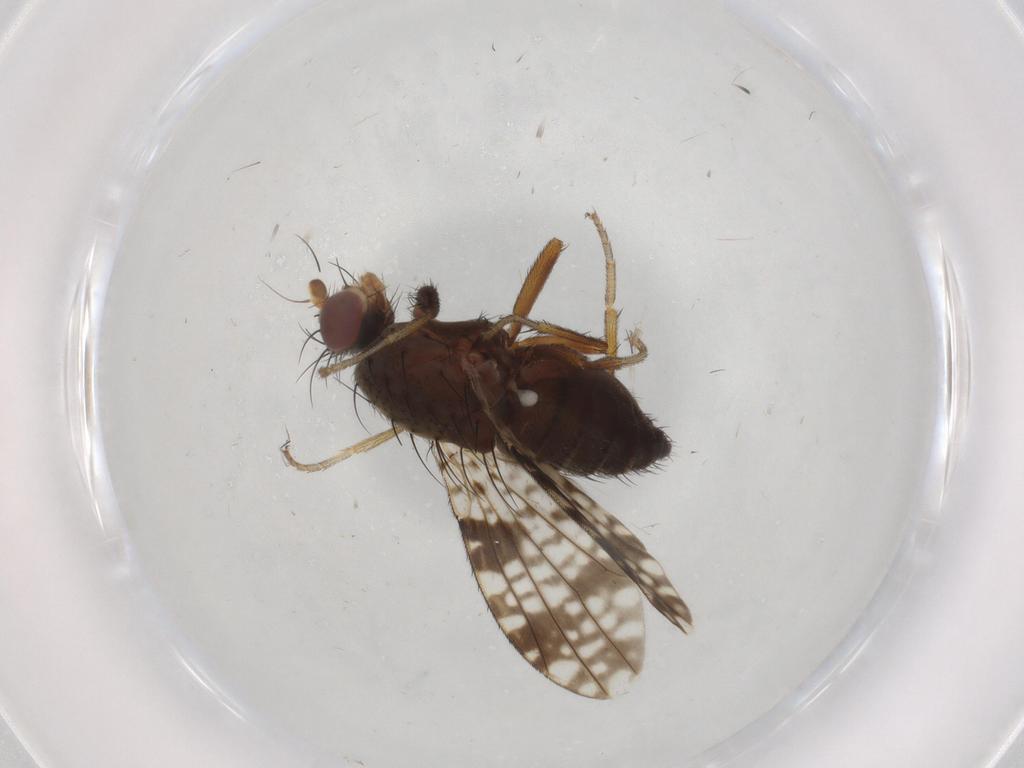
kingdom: Animalia
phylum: Arthropoda
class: Insecta
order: Diptera
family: Tephritidae
